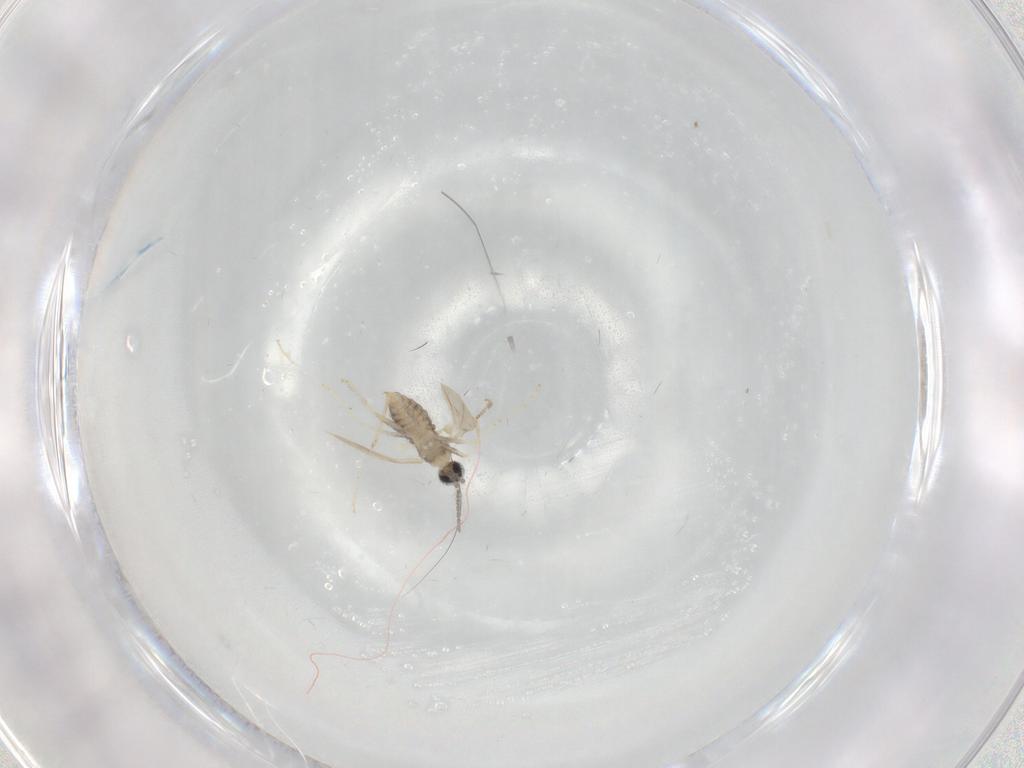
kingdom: Animalia
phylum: Arthropoda
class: Insecta
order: Diptera
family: Cecidomyiidae
